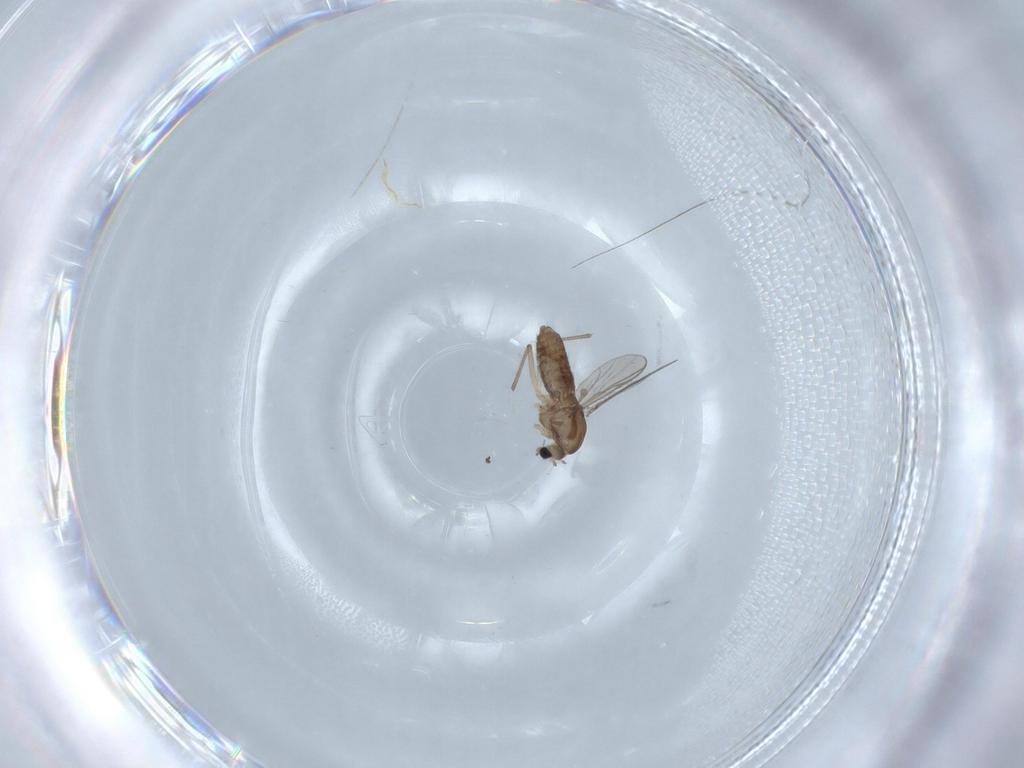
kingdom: Animalia
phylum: Arthropoda
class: Insecta
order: Diptera
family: Chironomidae
